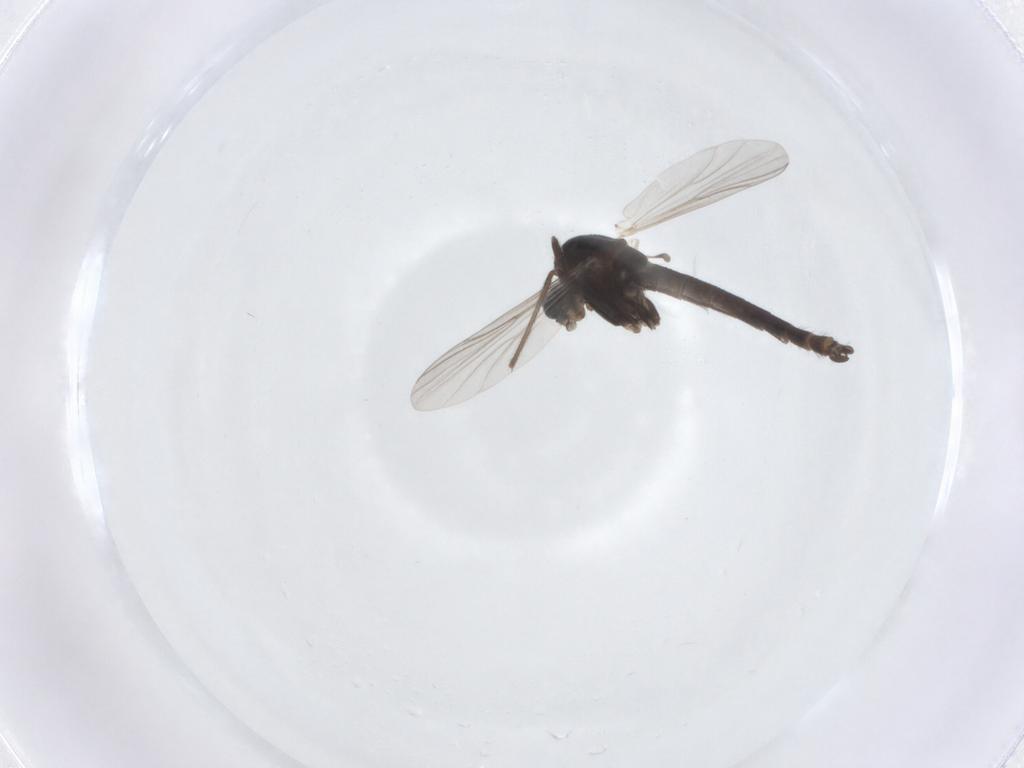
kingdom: Animalia
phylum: Arthropoda
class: Insecta
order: Diptera
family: Chironomidae
